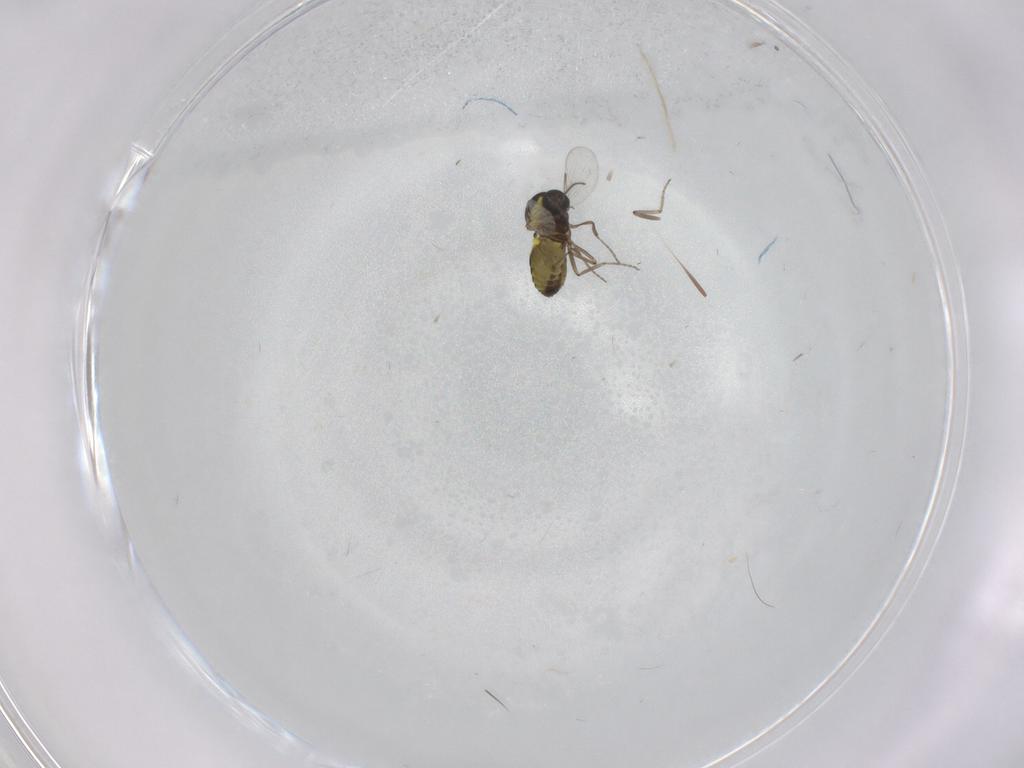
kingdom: Animalia
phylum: Arthropoda
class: Insecta
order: Diptera
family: Ceratopogonidae
